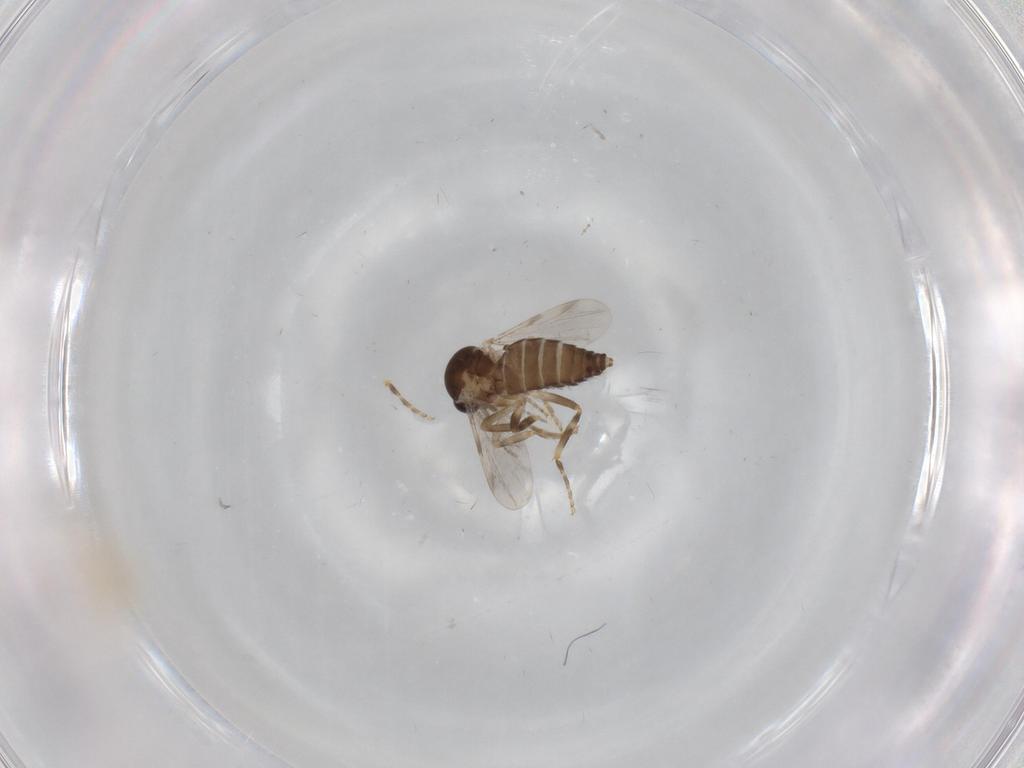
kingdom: Animalia
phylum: Arthropoda
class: Insecta
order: Diptera
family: Ceratopogonidae
